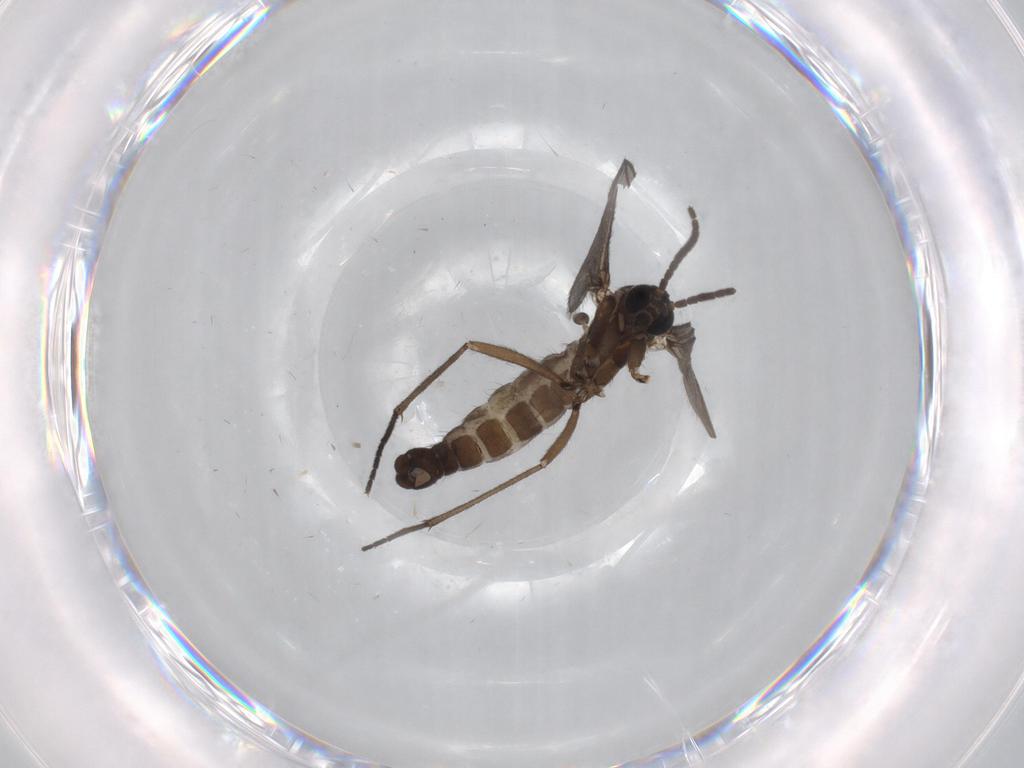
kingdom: Animalia
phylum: Arthropoda
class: Insecta
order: Diptera
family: Sciaridae
